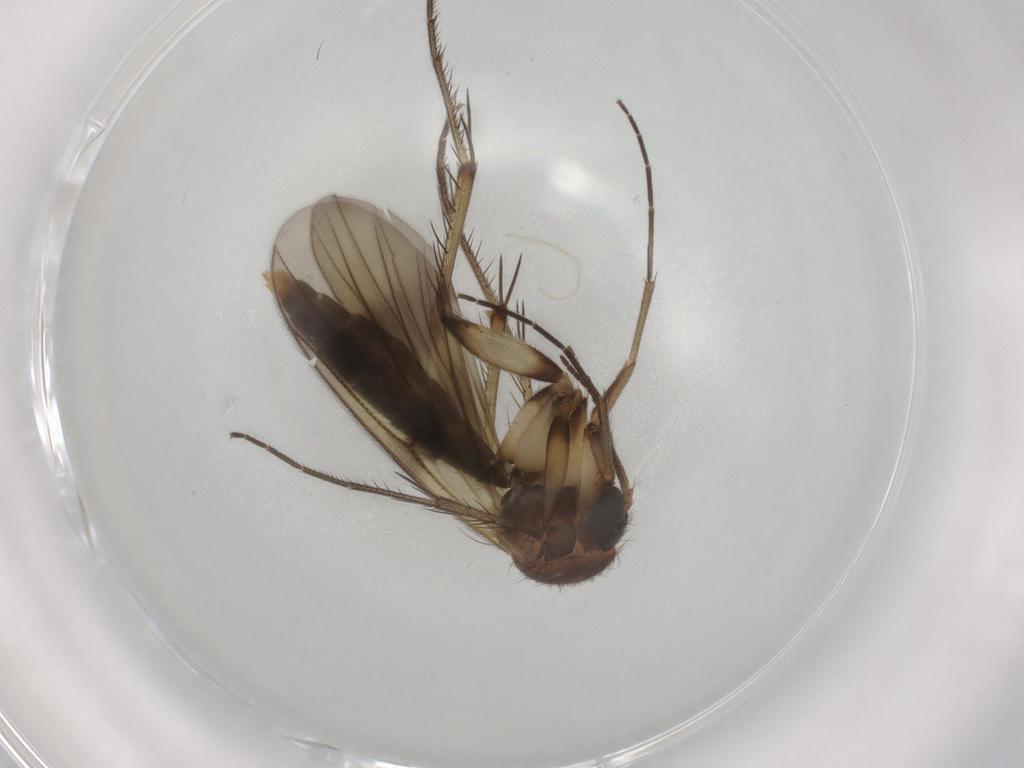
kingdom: Animalia
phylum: Arthropoda
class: Insecta
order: Diptera
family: Mycetophilidae
